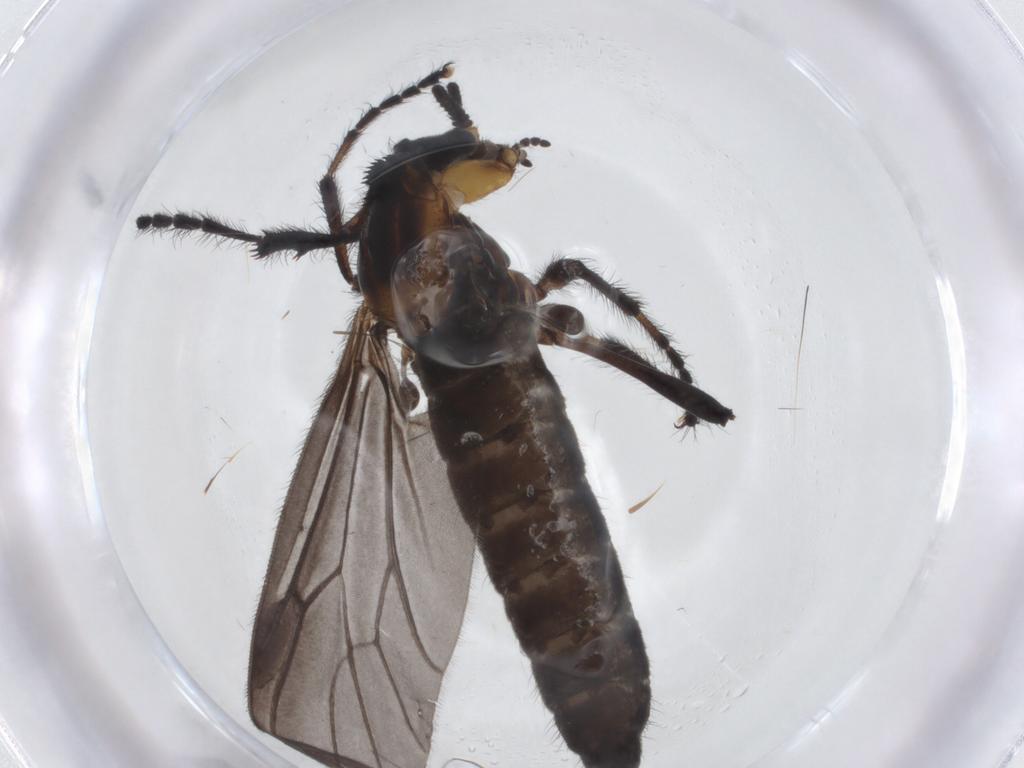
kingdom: Animalia
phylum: Arthropoda
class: Insecta
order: Diptera
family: Bibionidae
